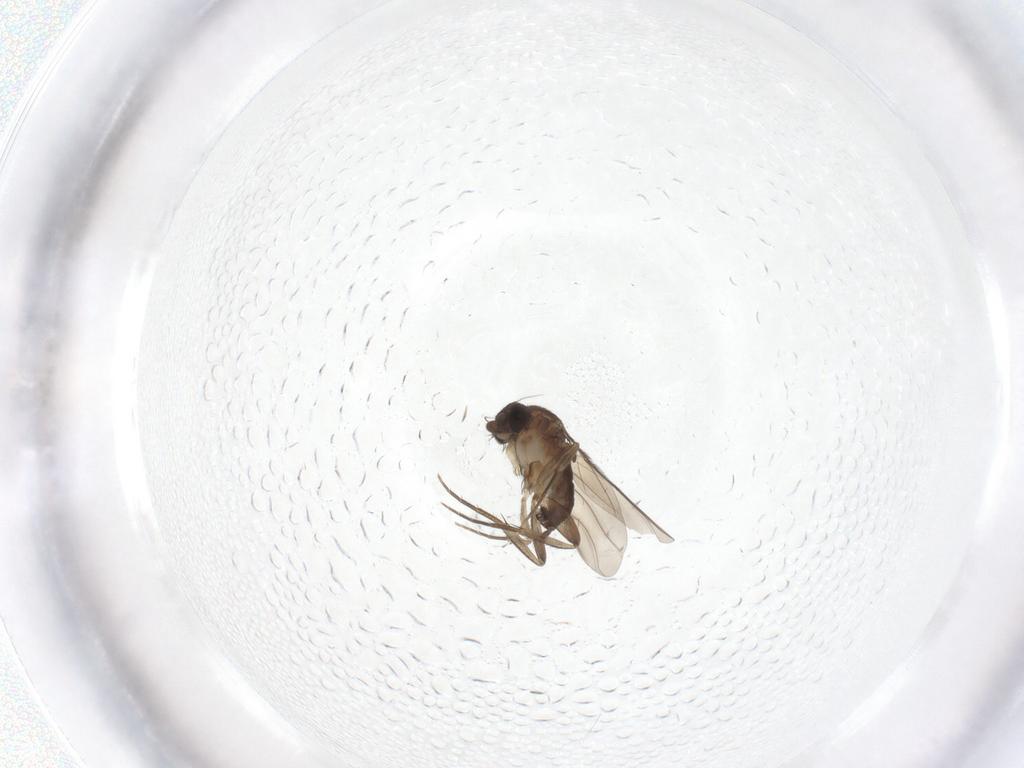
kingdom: Animalia
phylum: Arthropoda
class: Insecta
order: Diptera
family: Phoridae
